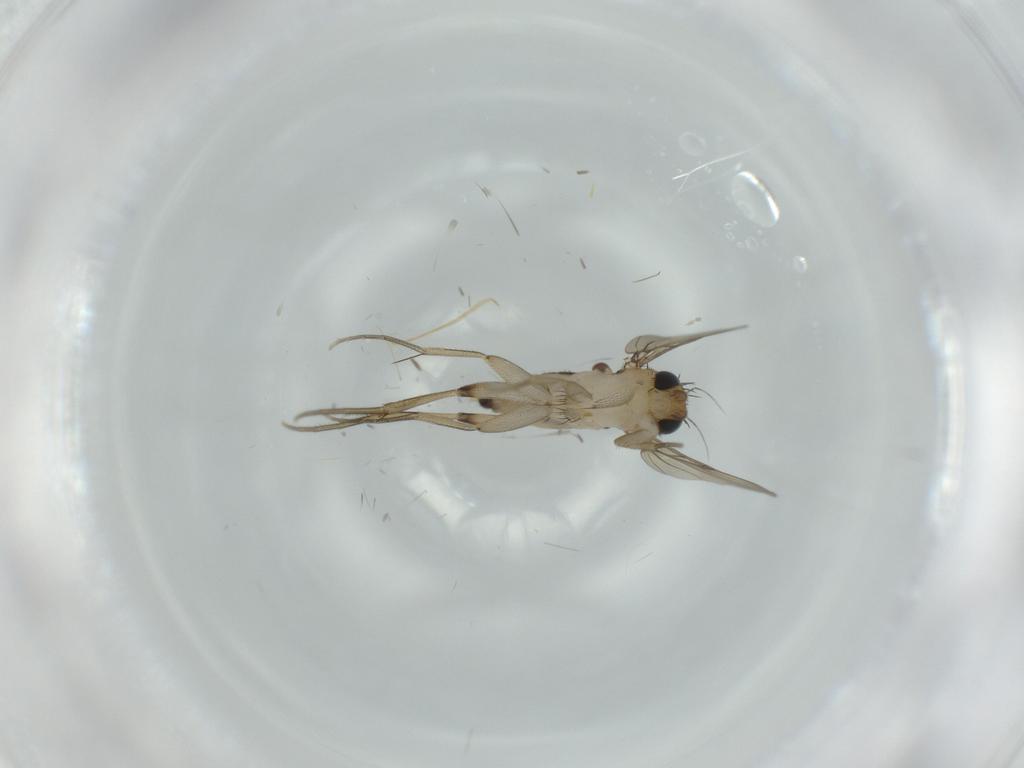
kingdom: Animalia
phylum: Arthropoda
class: Insecta
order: Diptera
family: Phoridae
